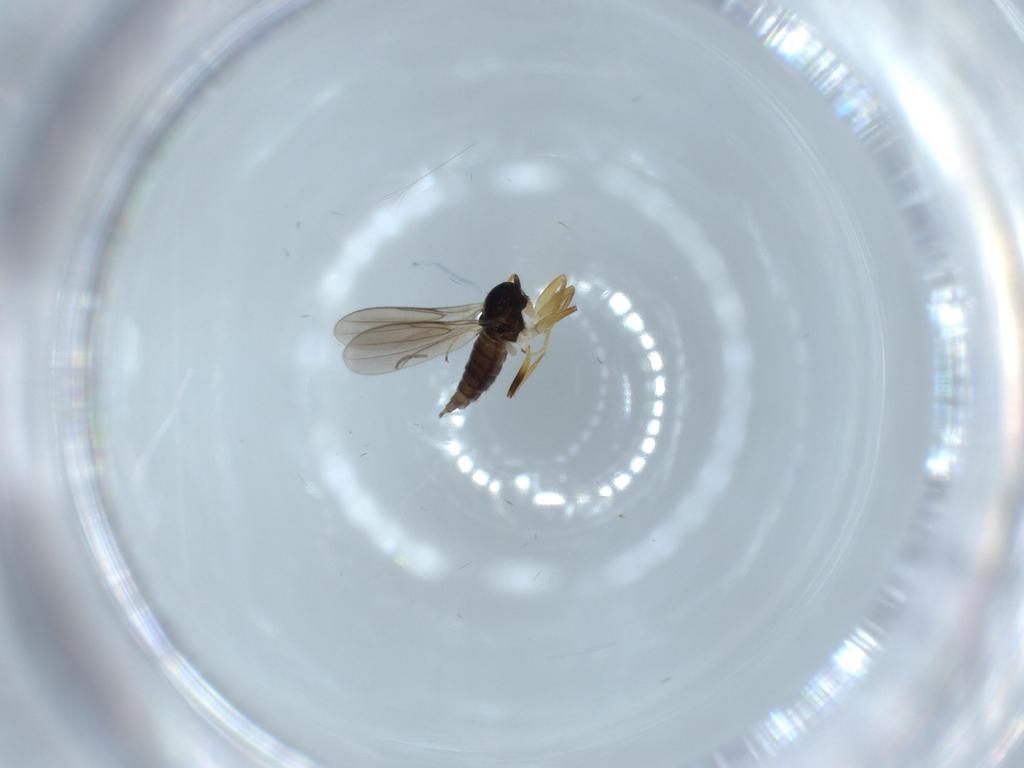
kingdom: Animalia
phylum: Arthropoda
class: Insecta
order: Diptera
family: Hybotidae
